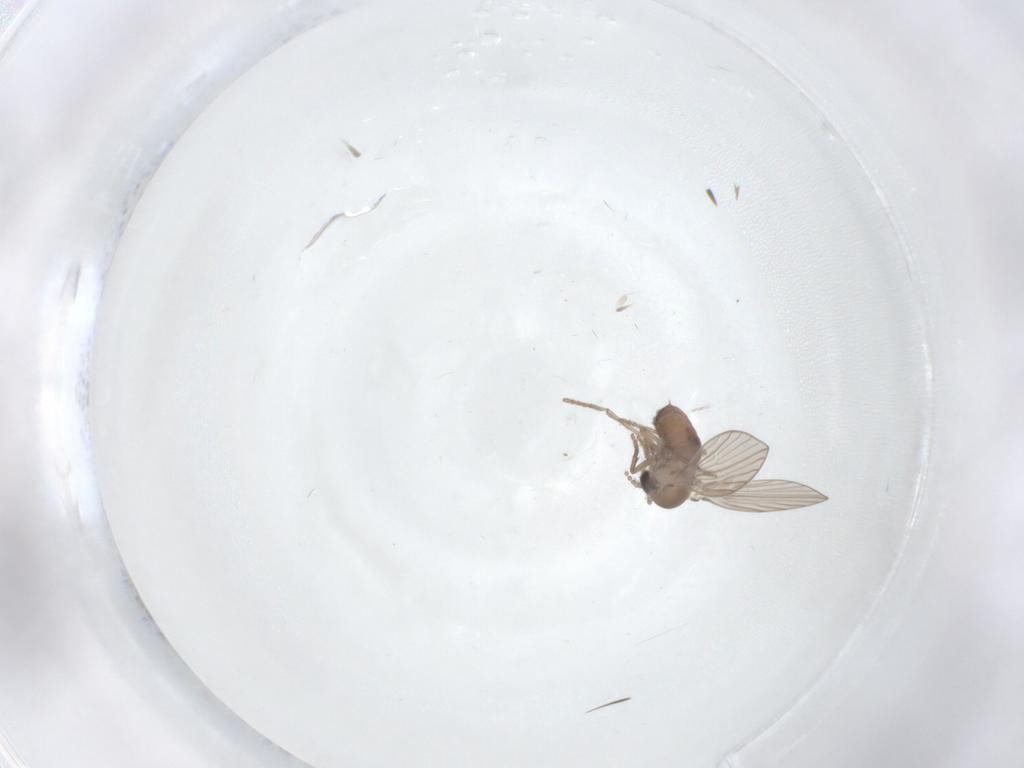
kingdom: Animalia
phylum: Arthropoda
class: Insecta
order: Diptera
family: Psychodidae
